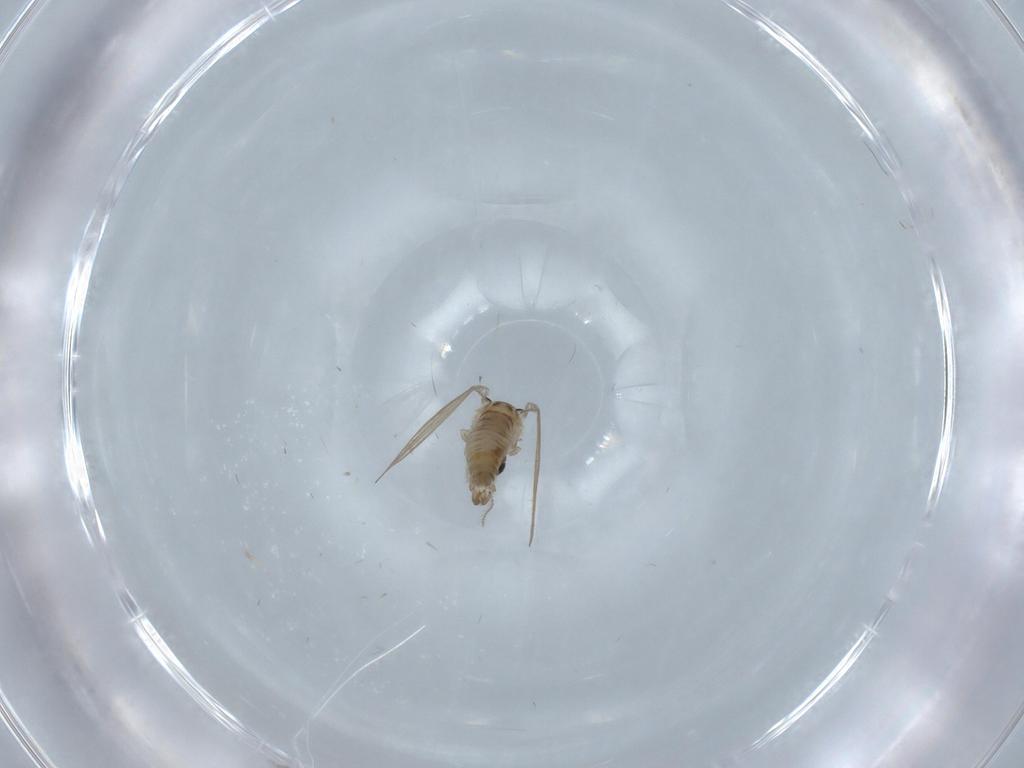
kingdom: Animalia
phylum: Arthropoda
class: Insecta
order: Diptera
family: Psychodidae
